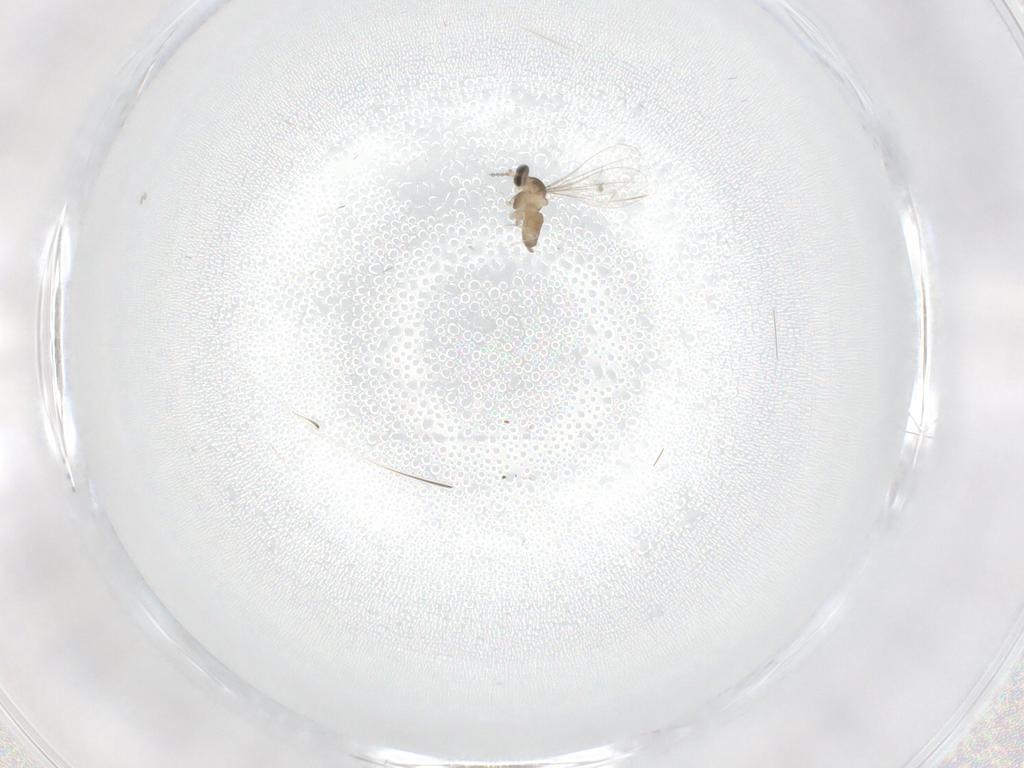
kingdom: Animalia
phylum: Arthropoda
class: Insecta
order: Diptera
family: Cecidomyiidae
